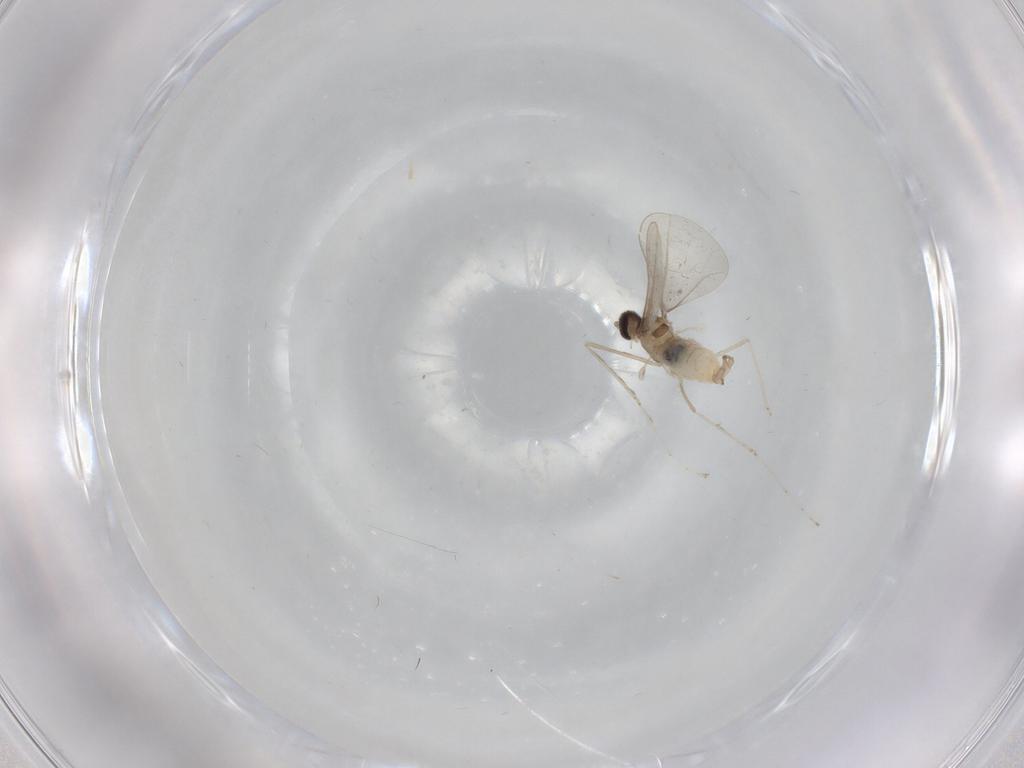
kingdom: Animalia
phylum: Arthropoda
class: Insecta
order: Diptera
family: Cecidomyiidae
